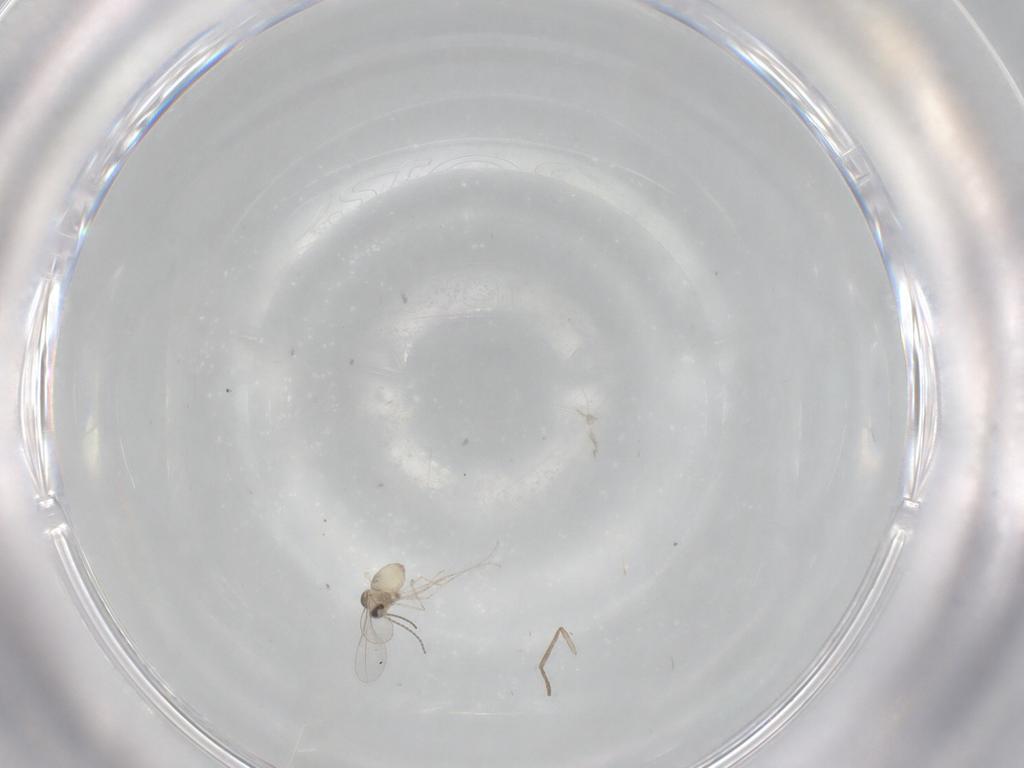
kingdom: Animalia
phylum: Arthropoda
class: Insecta
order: Diptera
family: Cecidomyiidae
